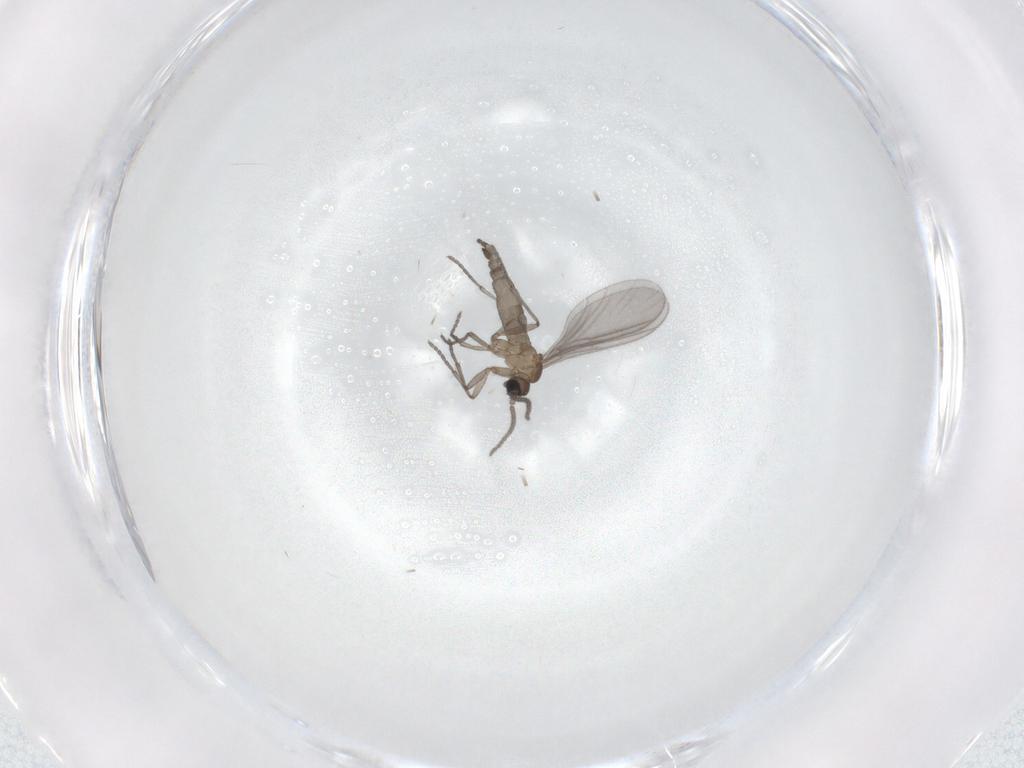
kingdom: Animalia
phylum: Arthropoda
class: Insecta
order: Diptera
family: Sciaridae
